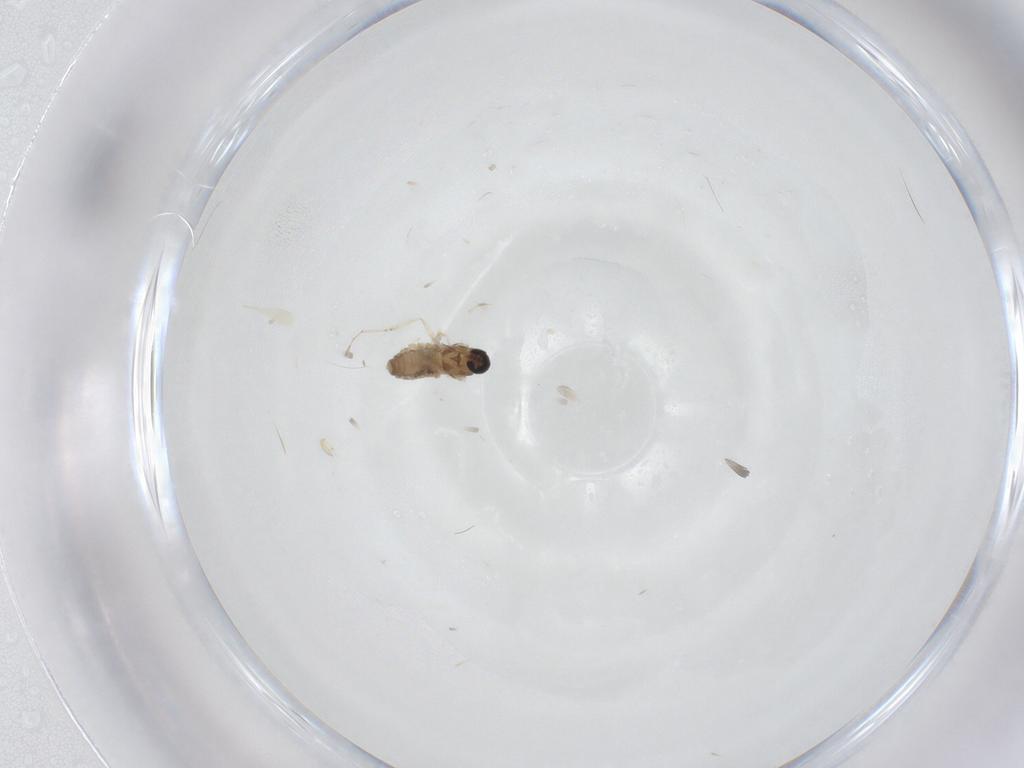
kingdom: Animalia
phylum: Arthropoda
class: Insecta
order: Diptera
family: Cecidomyiidae
